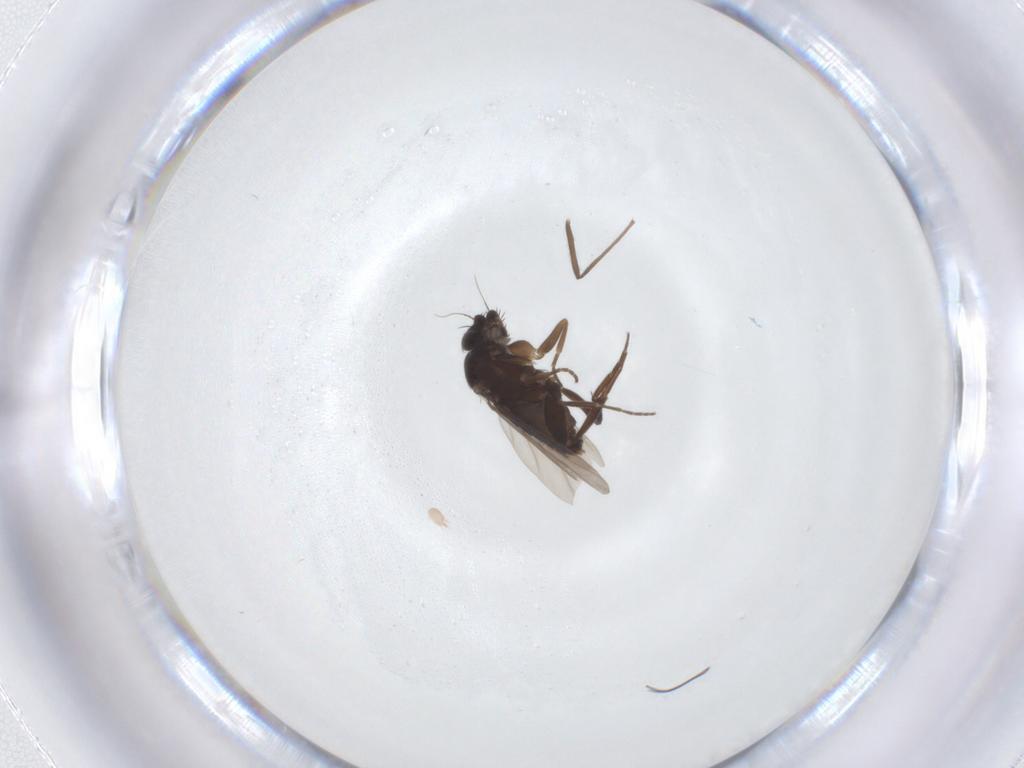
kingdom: Animalia
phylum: Arthropoda
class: Insecta
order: Diptera
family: Phoridae
